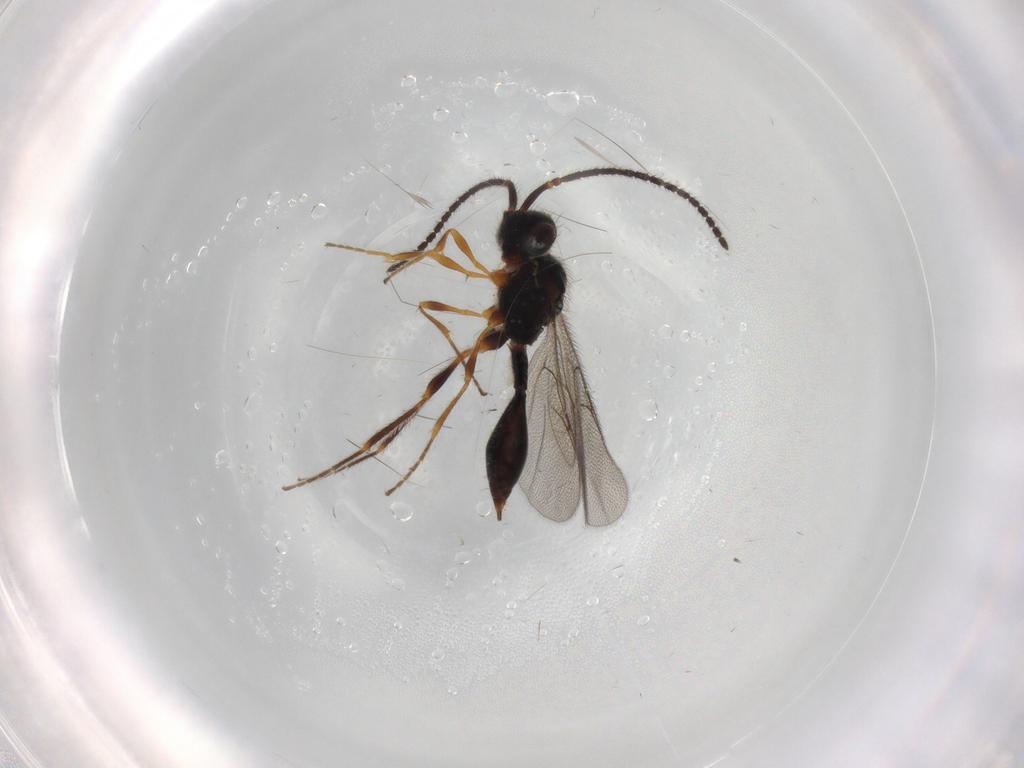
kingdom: Animalia
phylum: Arthropoda
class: Insecta
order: Hymenoptera
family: Diapriidae
